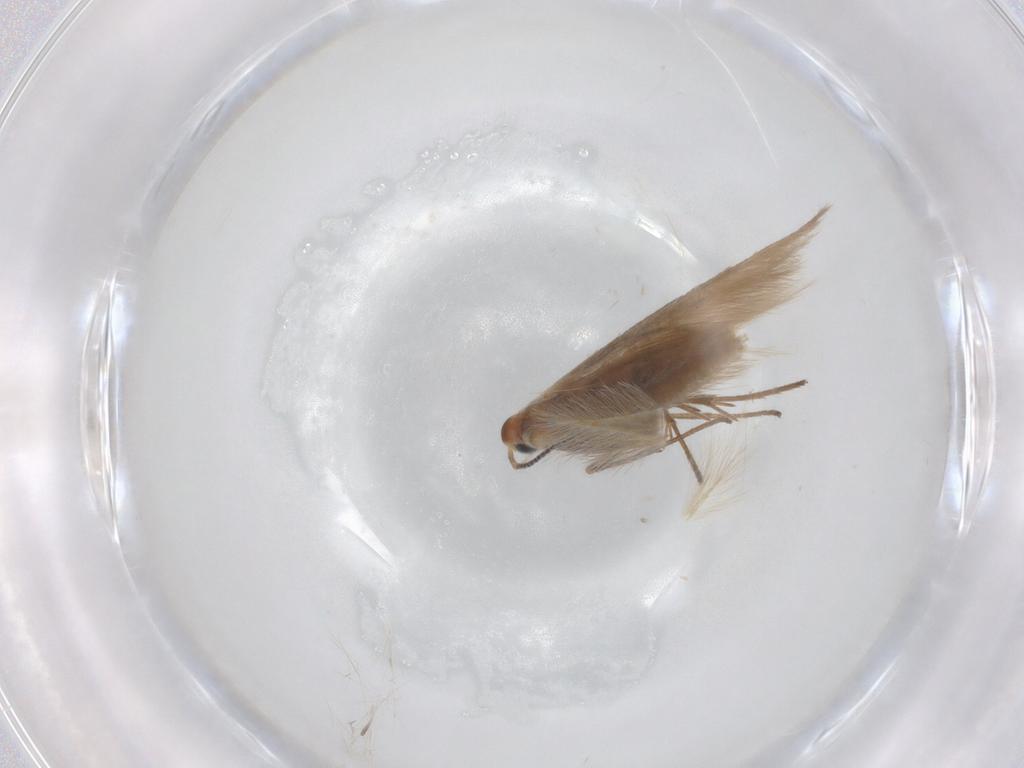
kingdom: Animalia
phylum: Arthropoda
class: Insecta
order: Lepidoptera
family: Coleophoridae
